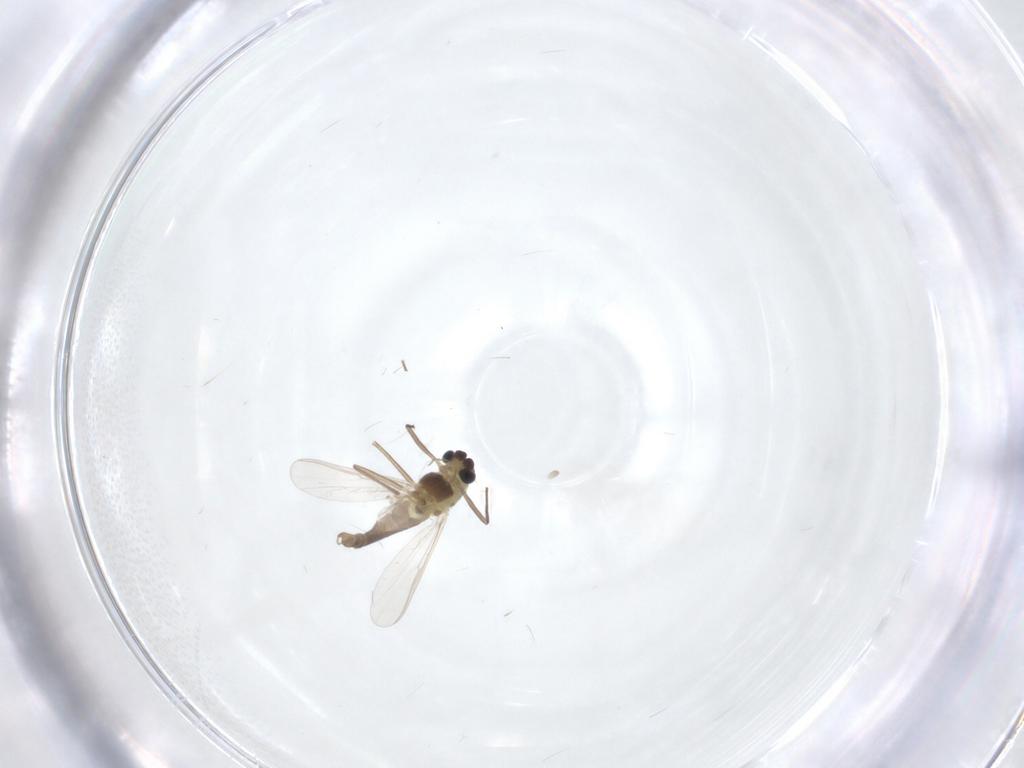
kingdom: Animalia
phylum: Arthropoda
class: Insecta
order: Diptera
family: Chironomidae
